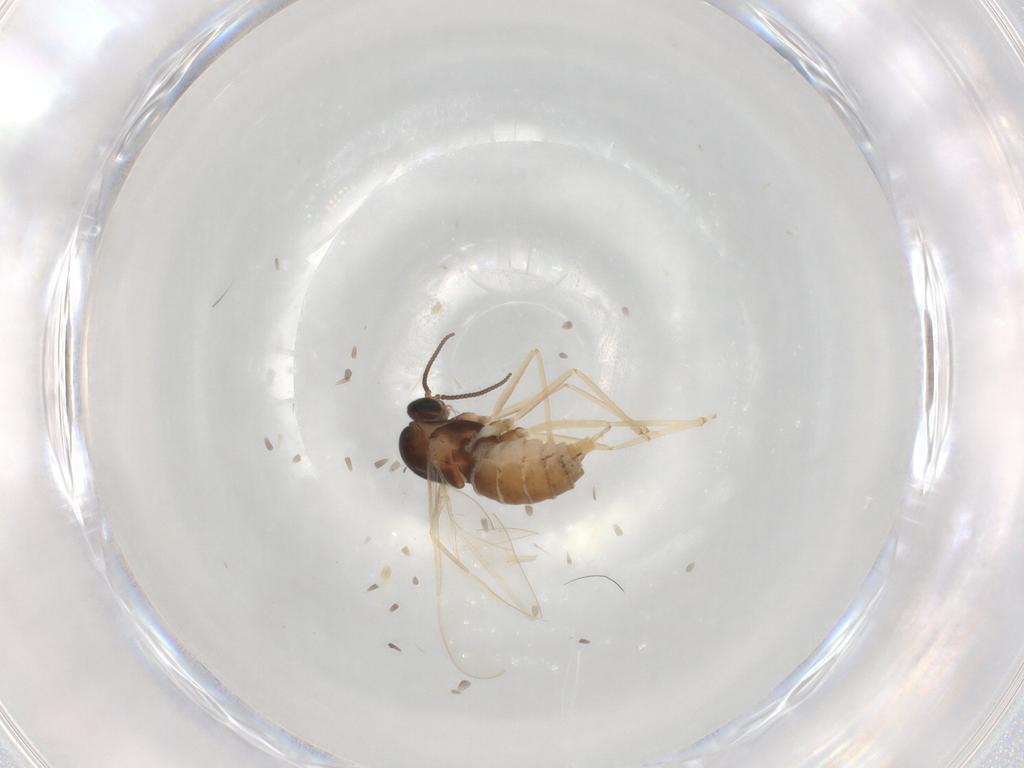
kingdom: Animalia
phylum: Arthropoda
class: Insecta
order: Diptera
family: Cecidomyiidae
